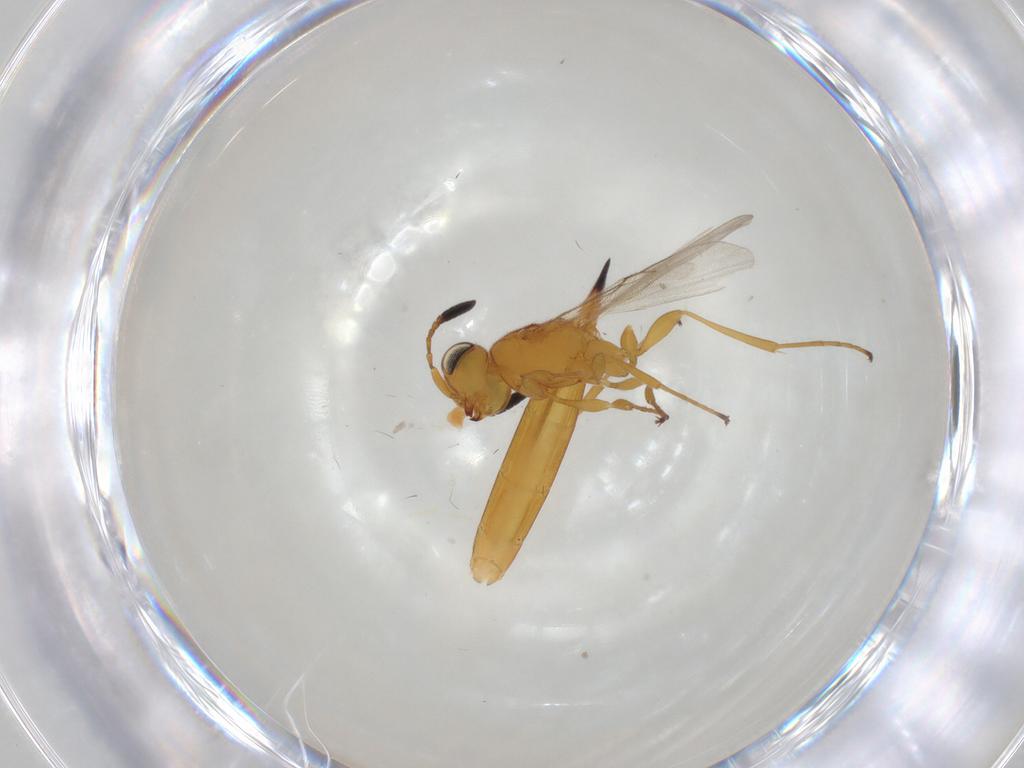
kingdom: Animalia
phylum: Arthropoda
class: Insecta
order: Hymenoptera
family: Scelionidae
